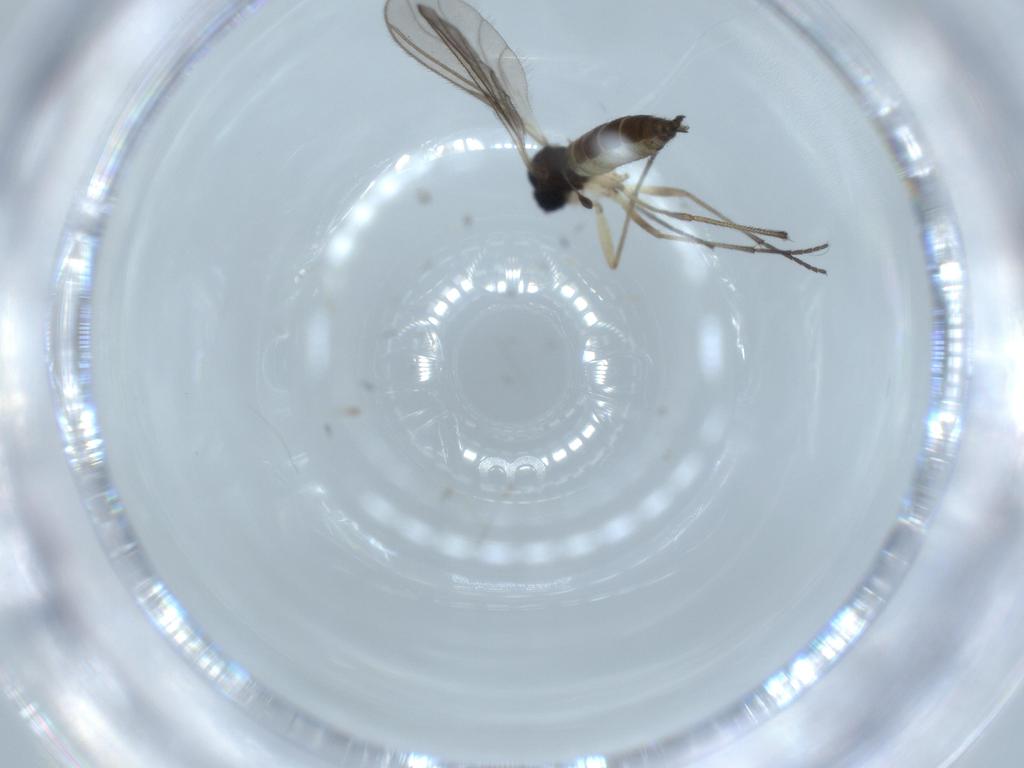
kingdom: Animalia
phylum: Arthropoda
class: Insecta
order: Diptera
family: Sciaridae
